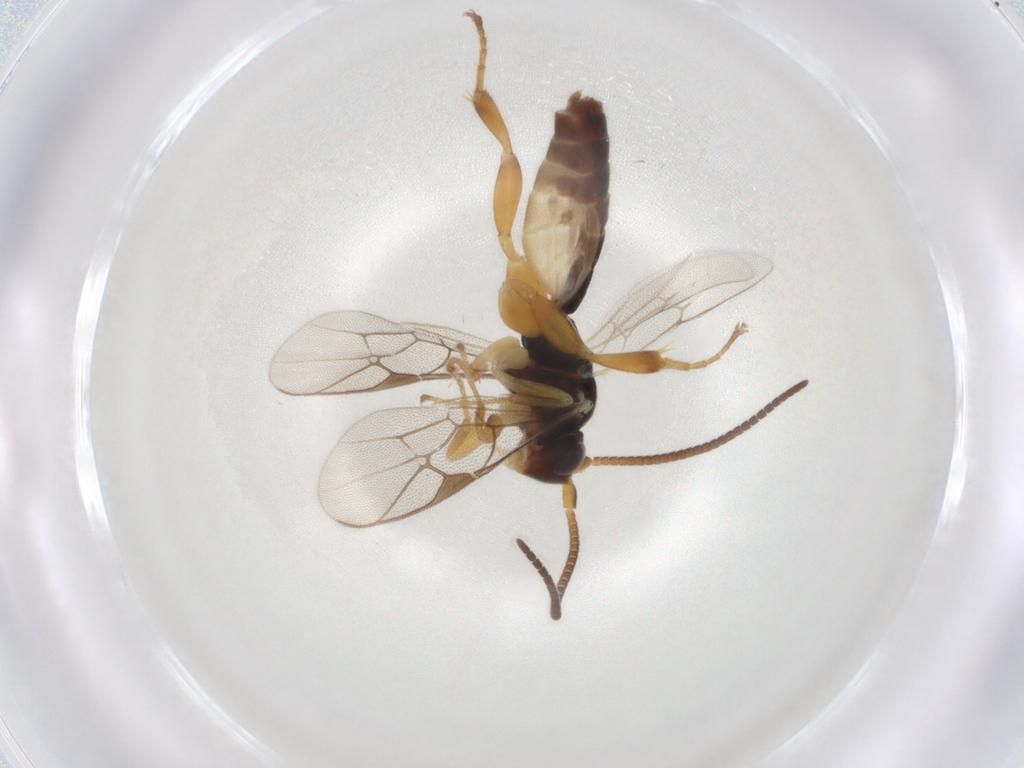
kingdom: Animalia
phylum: Arthropoda
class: Insecta
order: Hymenoptera
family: Ichneumonidae
